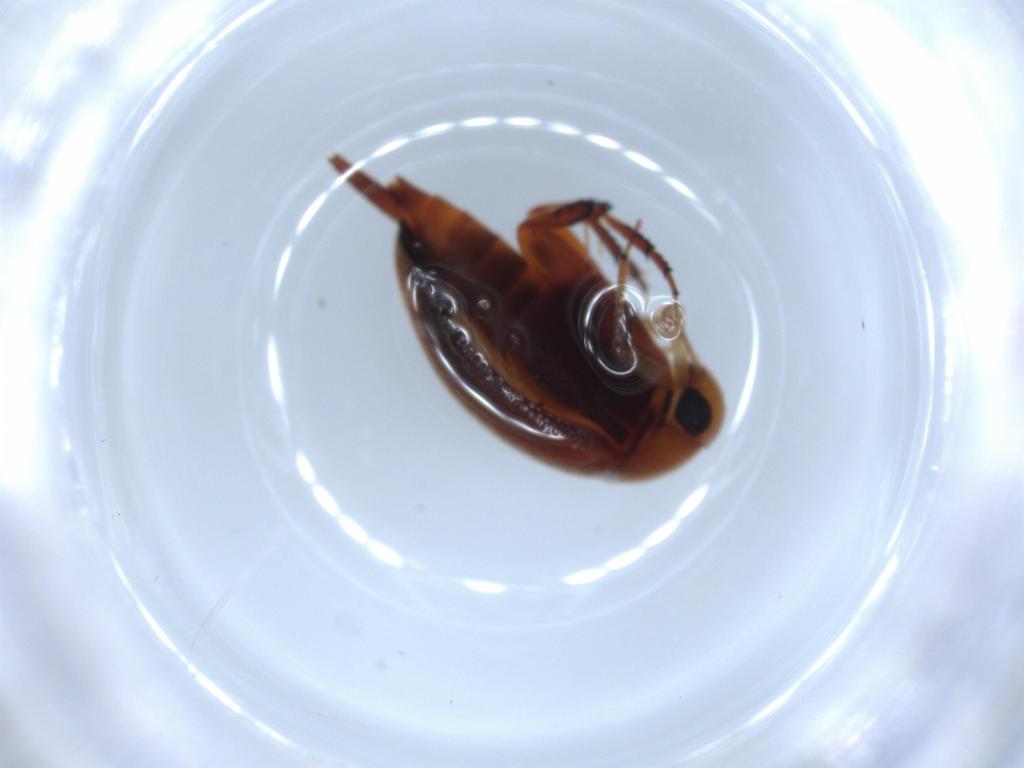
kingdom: Animalia
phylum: Arthropoda
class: Insecta
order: Coleoptera
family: Mordellidae
